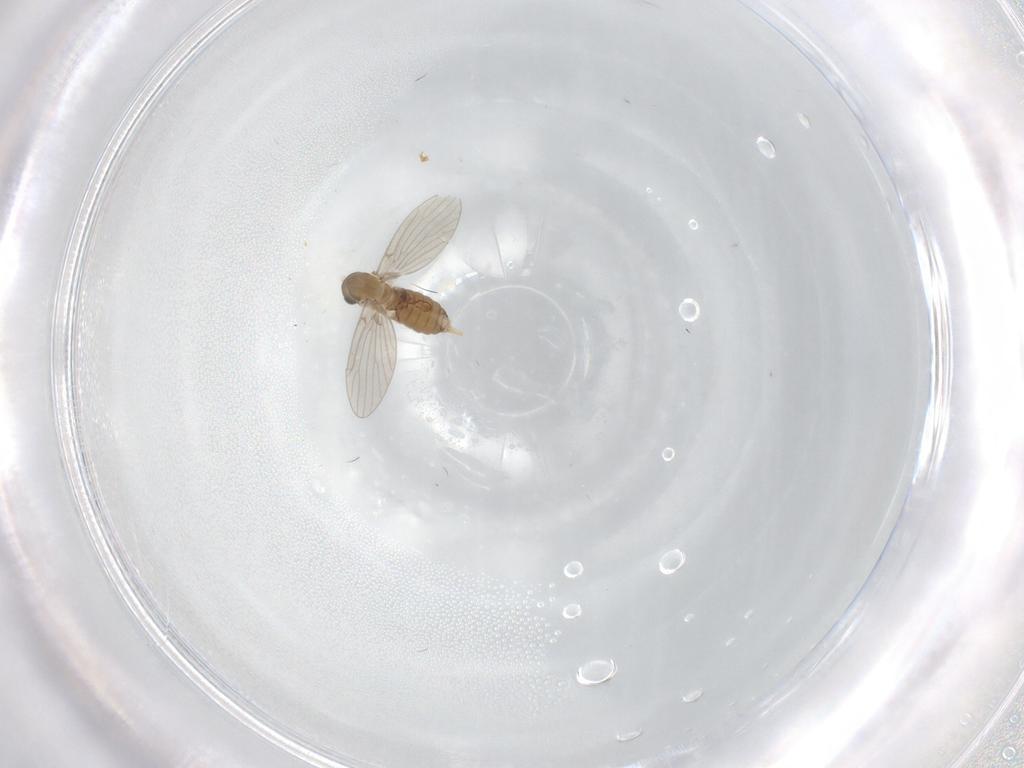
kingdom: Animalia
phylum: Arthropoda
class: Insecta
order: Diptera
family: Psychodidae
